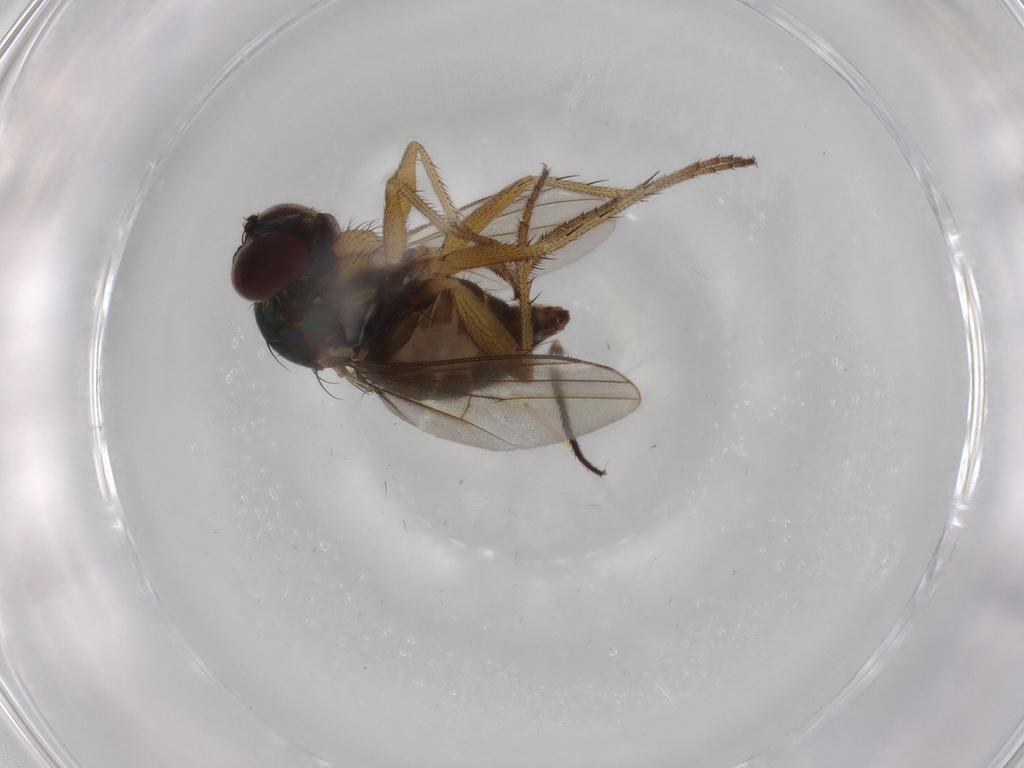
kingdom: Animalia
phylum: Arthropoda
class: Insecta
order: Diptera
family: Dolichopodidae
